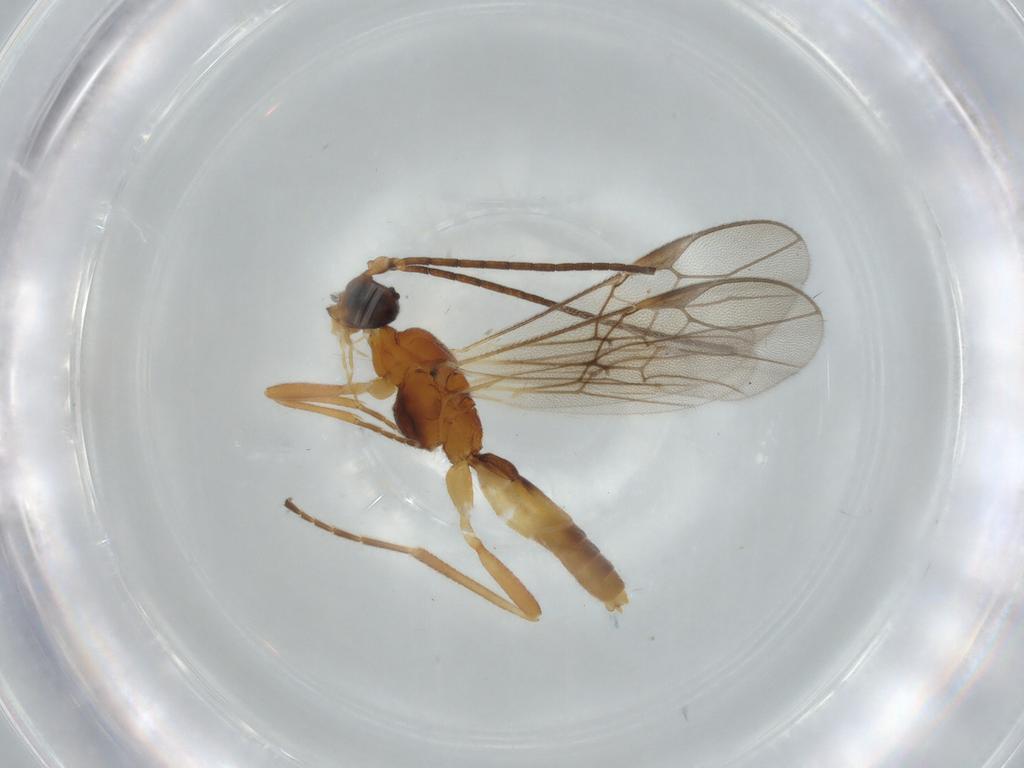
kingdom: Animalia
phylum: Arthropoda
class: Insecta
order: Hymenoptera
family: Braconidae
